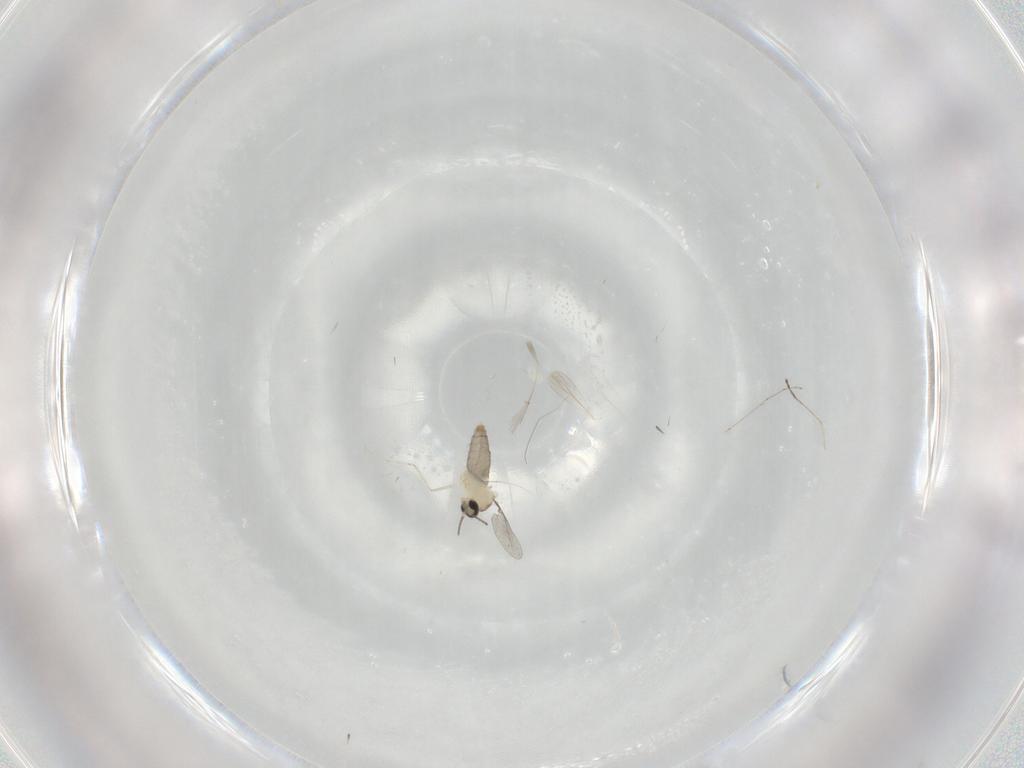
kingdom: Animalia
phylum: Arthropoda
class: Insecta
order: Diptera
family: Cecidomyiidae
